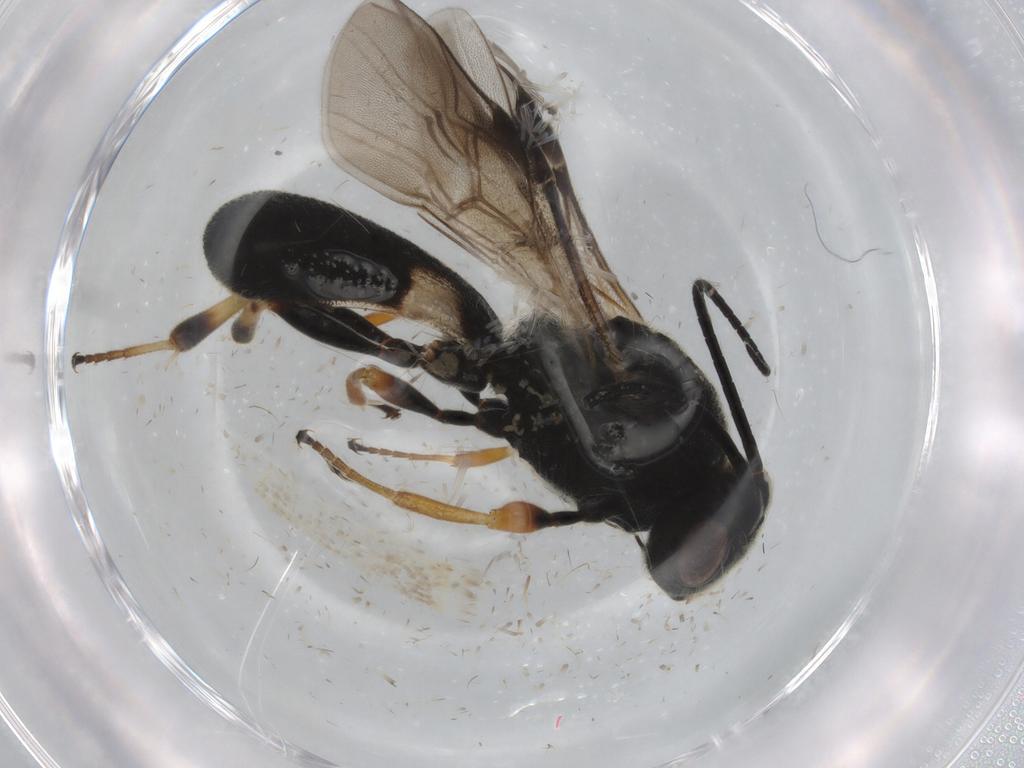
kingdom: Animalia
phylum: Arthropoda
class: Insecta
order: Hymenoptera
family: Braconidae
